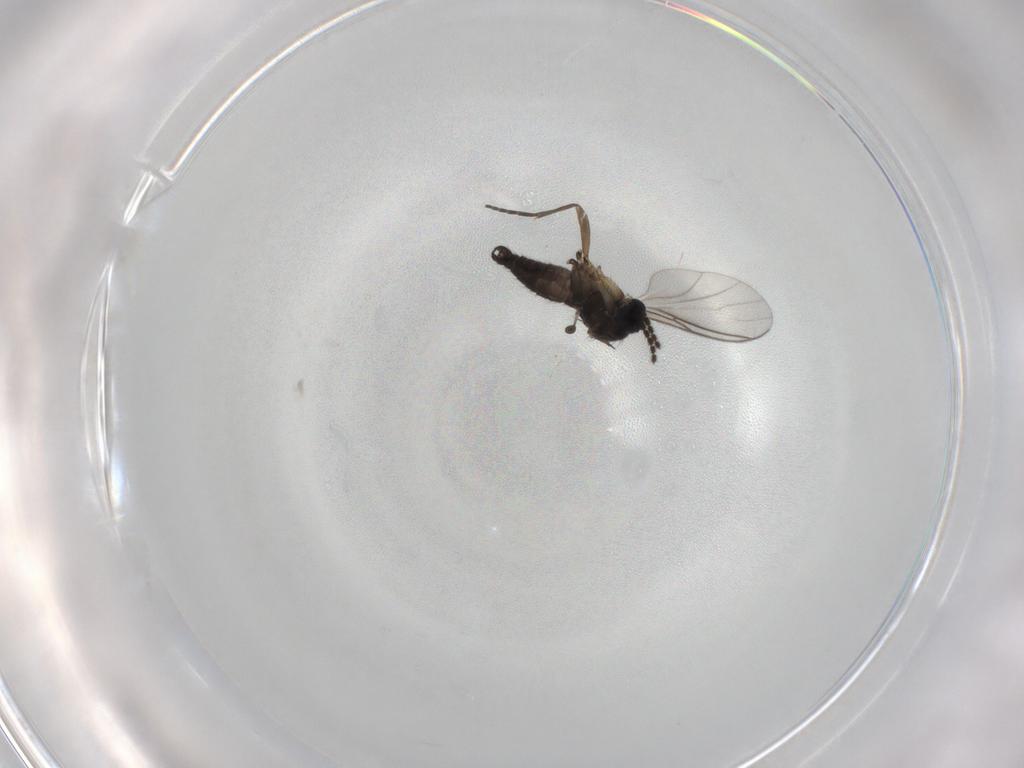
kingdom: Animalia
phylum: Arthropoda
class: Insecta
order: Diptera
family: Sciaridae
